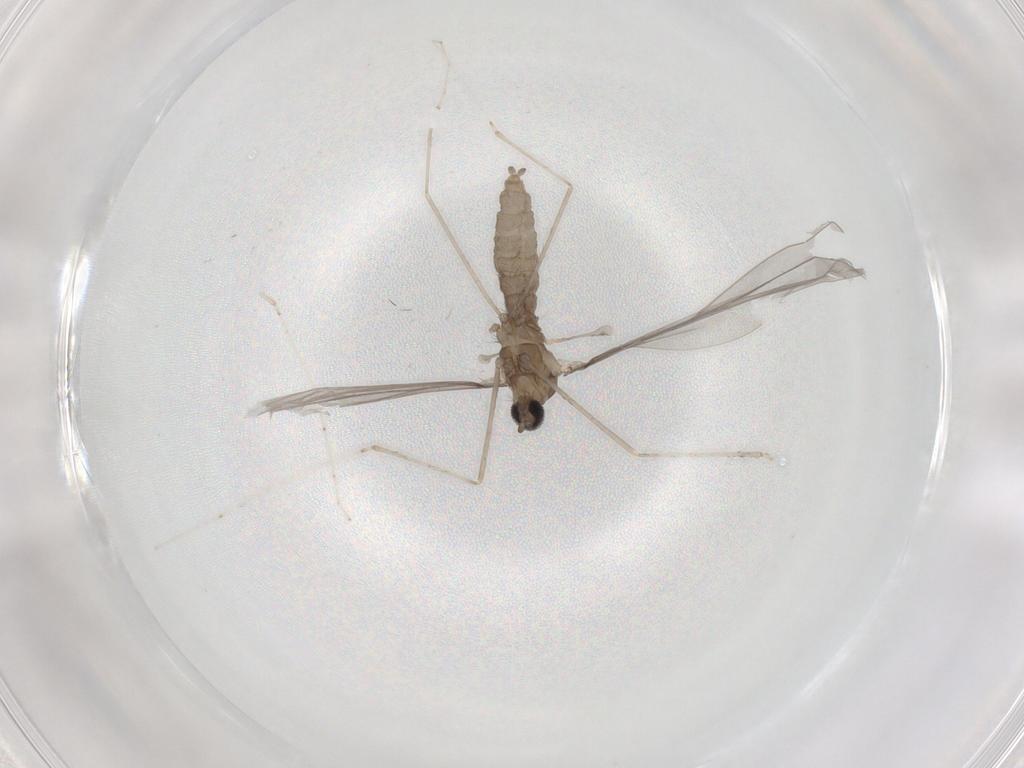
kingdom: Animalia
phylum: Arthropoda
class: Insecta
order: Diptera
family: Cecidomyiidae
